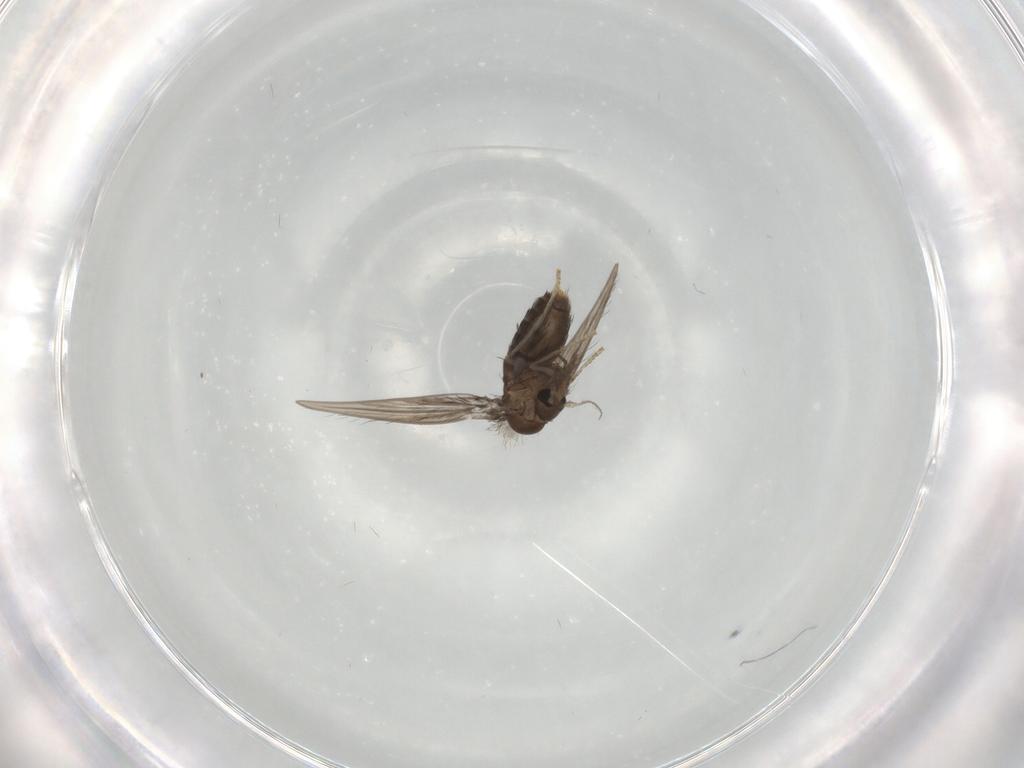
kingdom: Animalia
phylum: Arthropoda
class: Insecta
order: Diptera
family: Psychodidae
